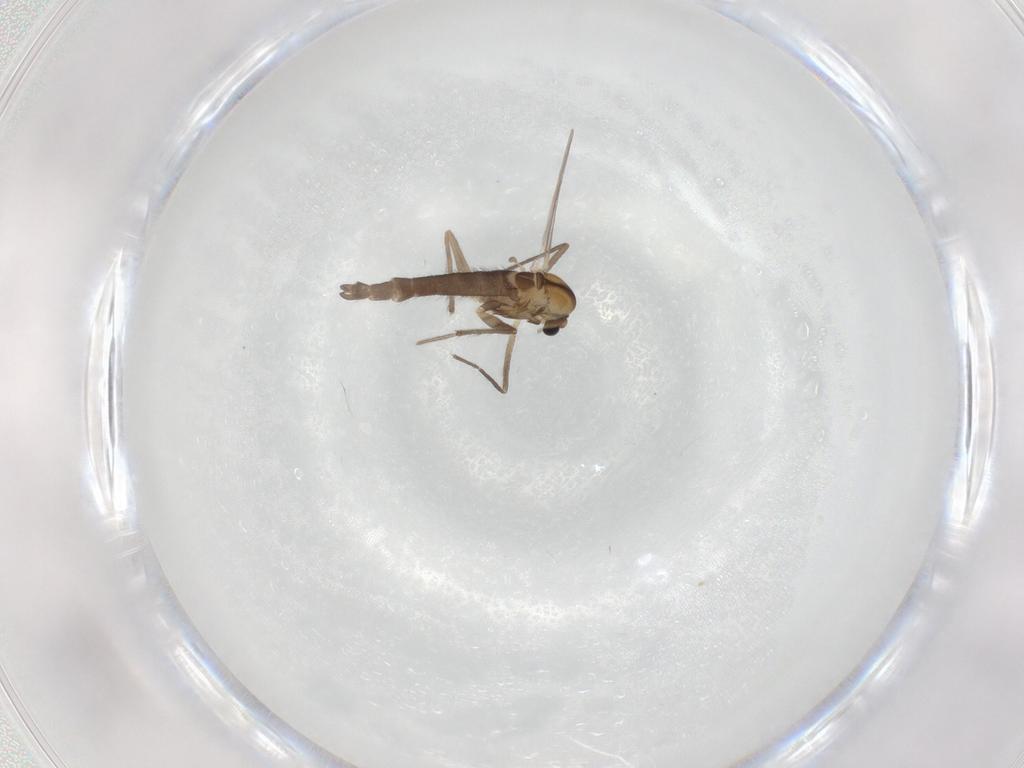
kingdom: Animalia
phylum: Arthropoda
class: Insecta
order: Diptera
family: Chironomidae
